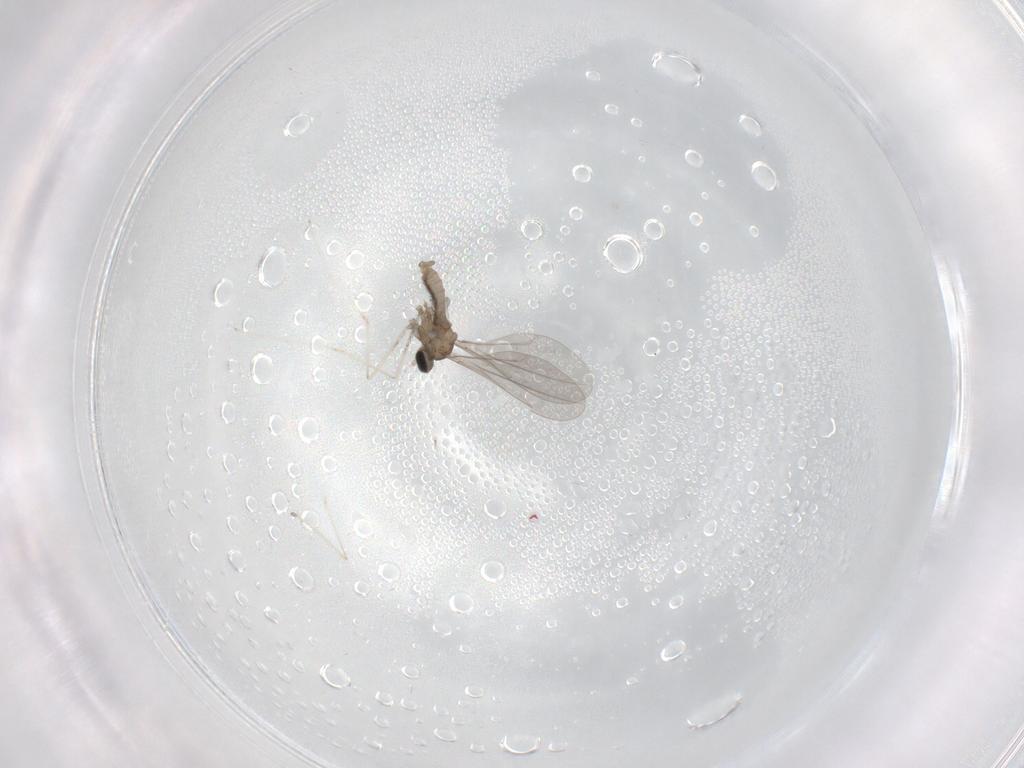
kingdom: Animalia
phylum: Arthropoda
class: Insecta
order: Diptera
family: Cecidomyiidae
